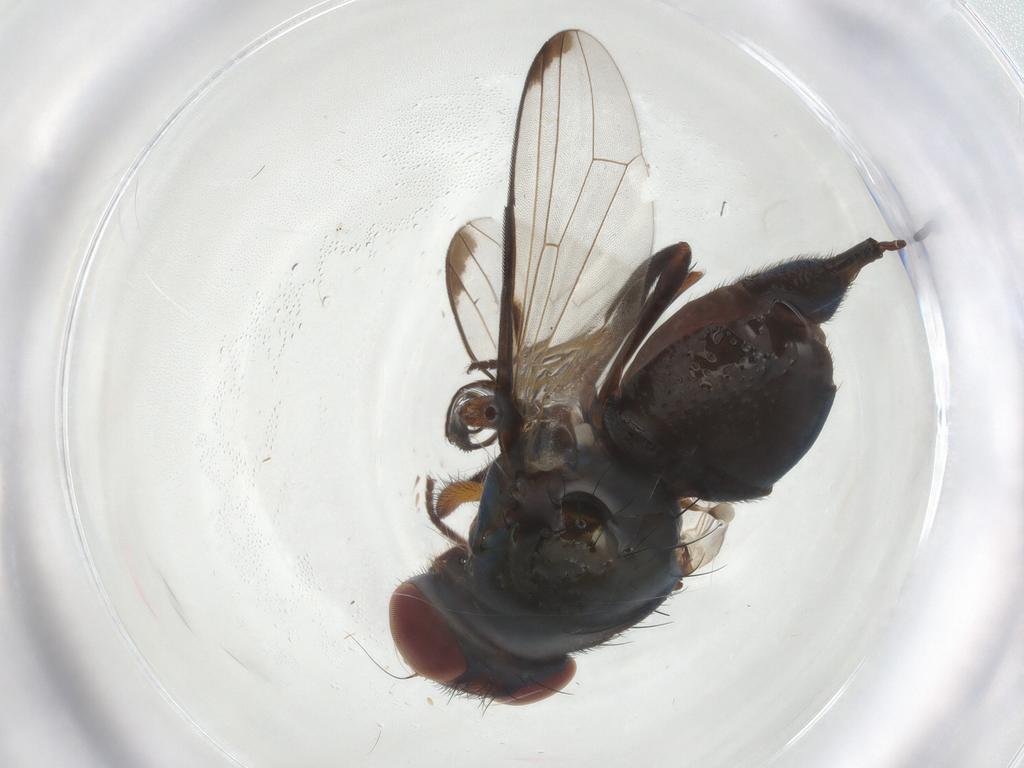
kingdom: Animalia
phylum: Arthropoda
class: Insecta
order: Diptera
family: Ulidiidae
